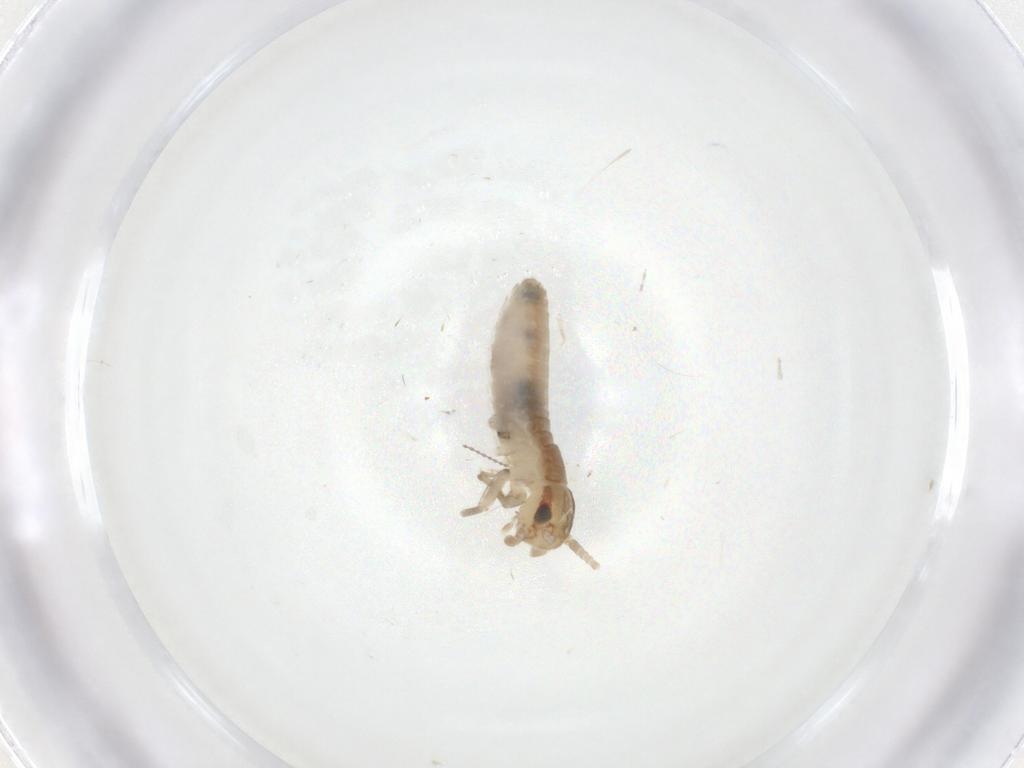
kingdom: Animalia
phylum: Arthropoda
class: Insecta
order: Orthoptera
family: Gryllidae
